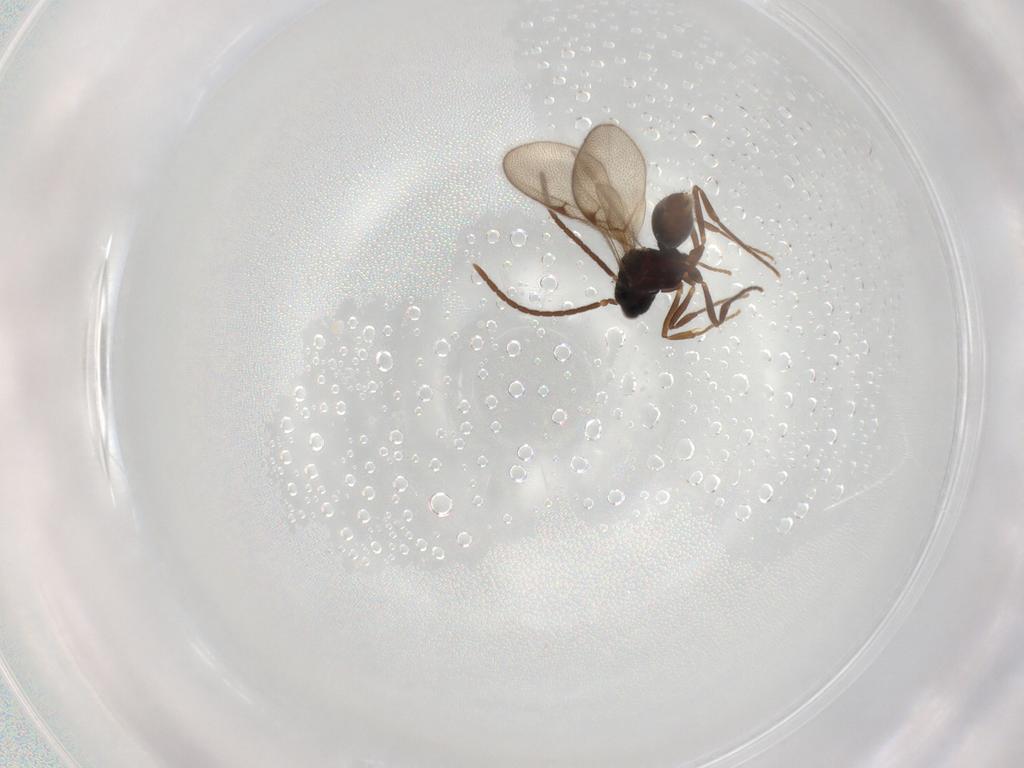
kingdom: Animalia
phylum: Arthropoda
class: Insecta
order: Hymenoptera
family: Formicidae
